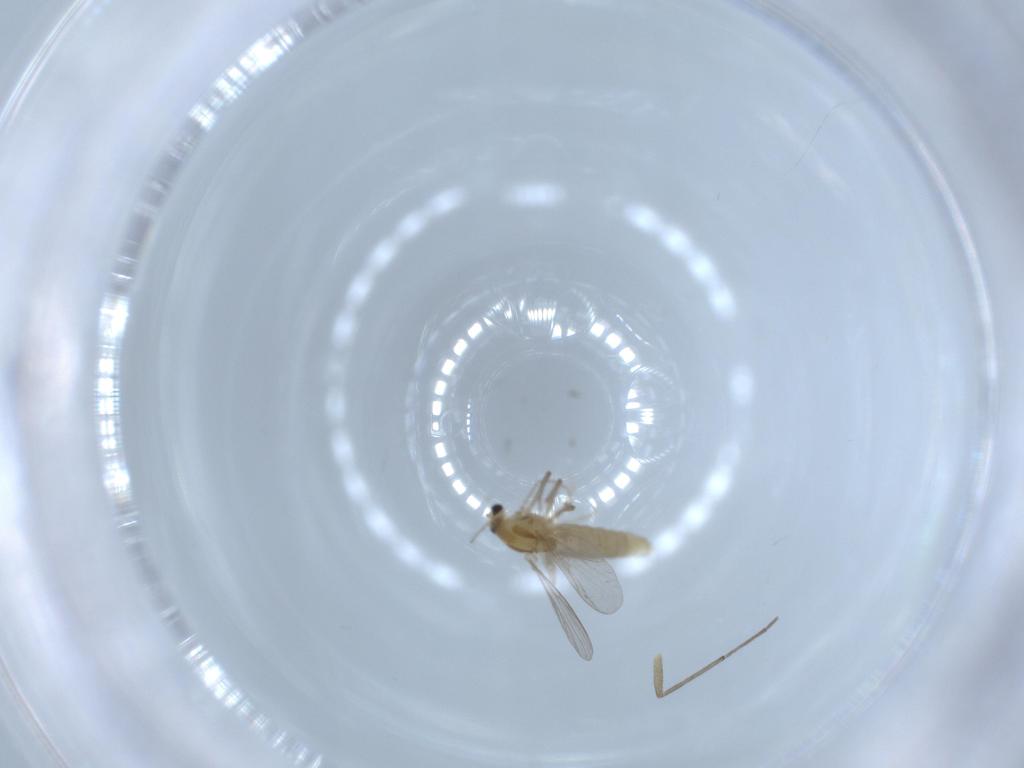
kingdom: Animalia
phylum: Arthropoda
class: Insecta
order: Diptera
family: Chironomidae
